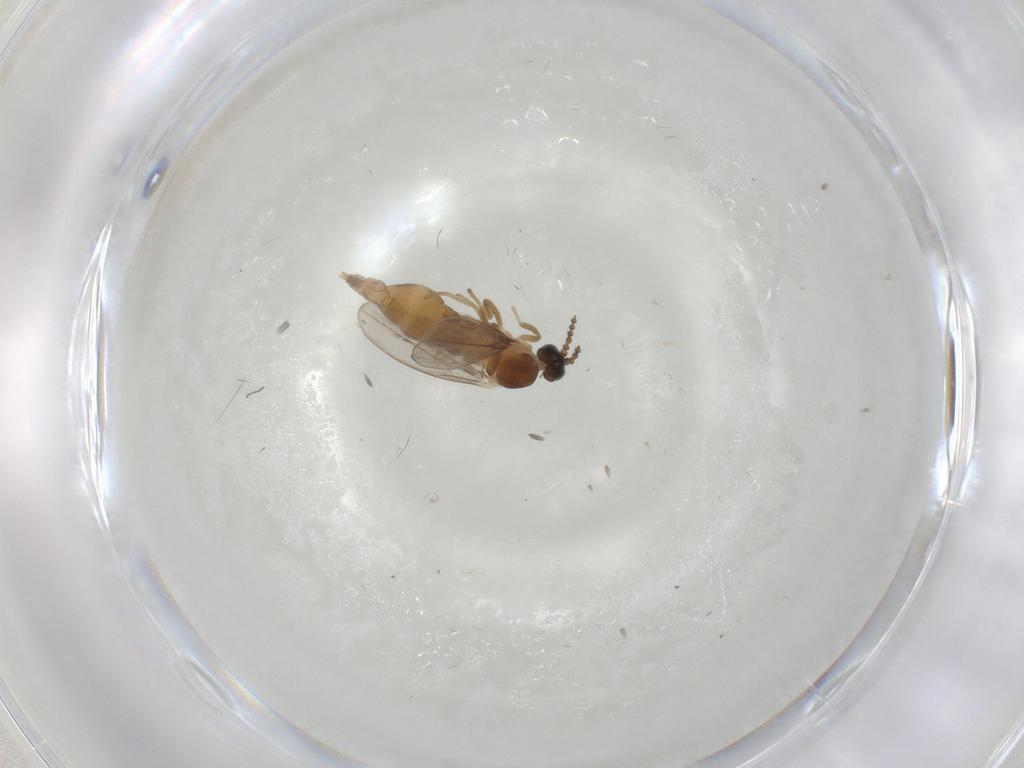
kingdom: Animalia
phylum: Arthropoda
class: Insecta
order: Diptera
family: Cecidomyiidae
